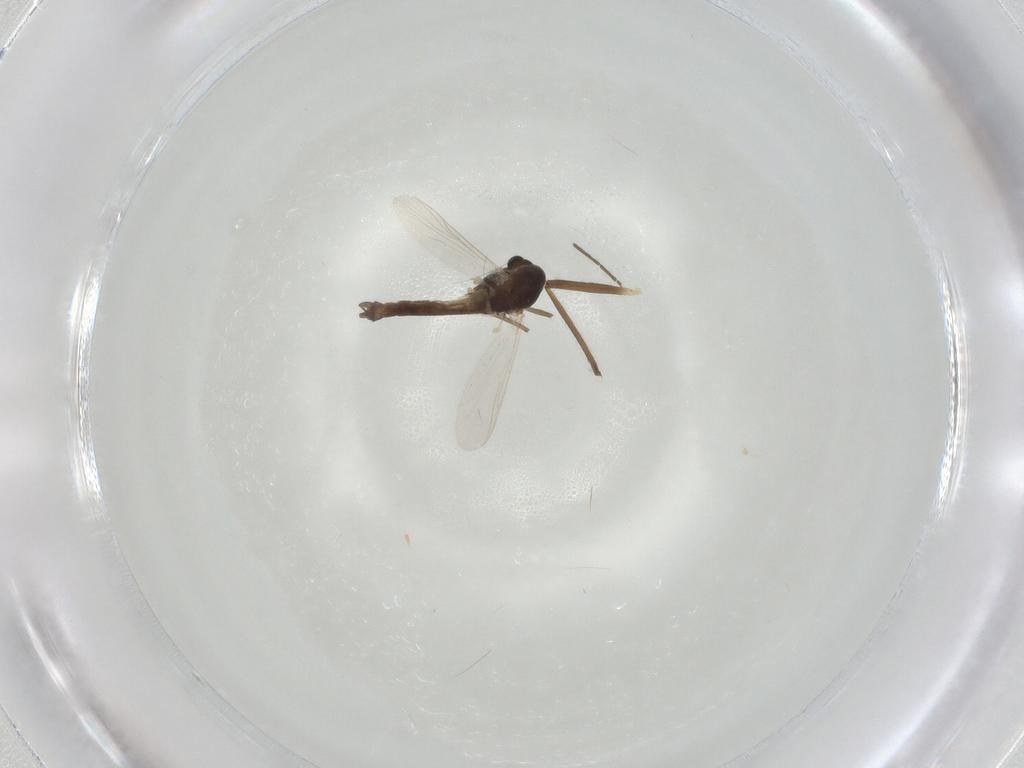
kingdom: Animalia
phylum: Arthropoda
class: Insecta
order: Diptera
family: Chironomidae
